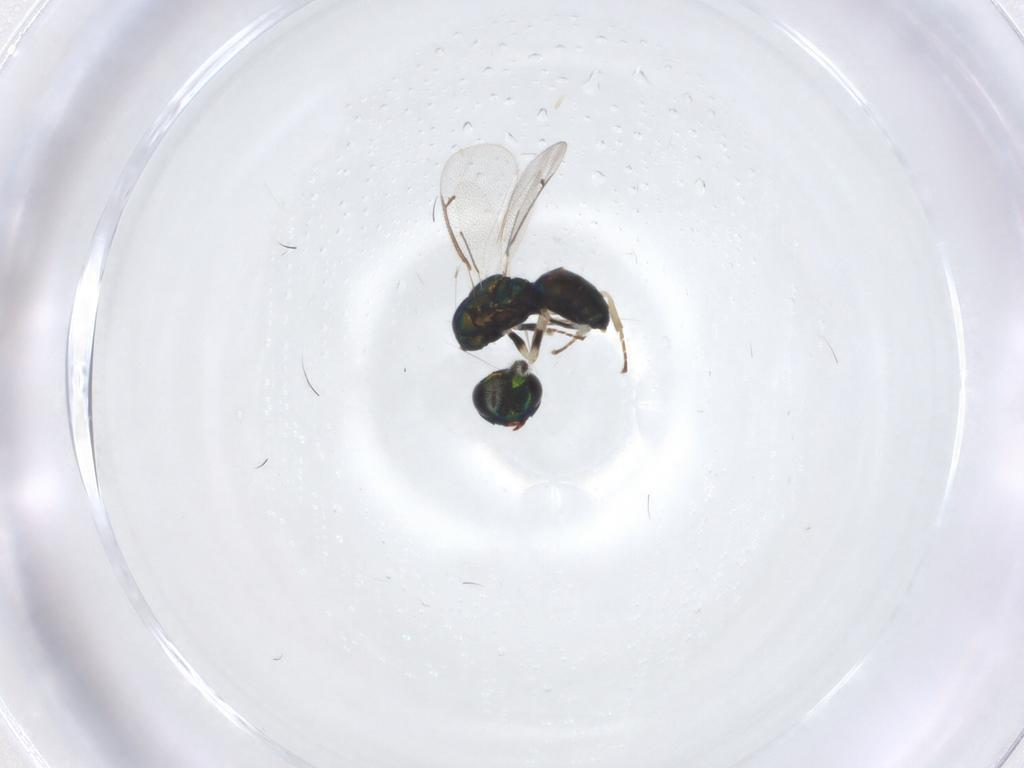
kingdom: Animalia
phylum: Arthropoda
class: Insecta
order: Hymenoptera
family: Eulophidae
